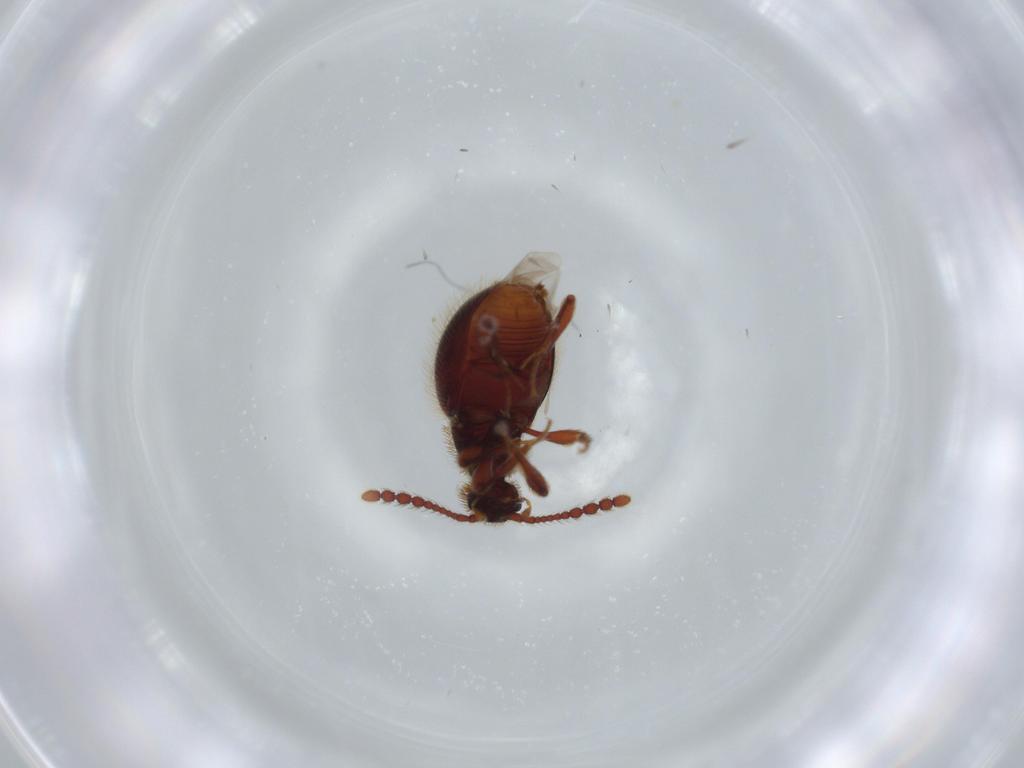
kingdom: Animalia
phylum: Arthropoda
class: Insecta
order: Coleoptera
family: Staphylinidae
